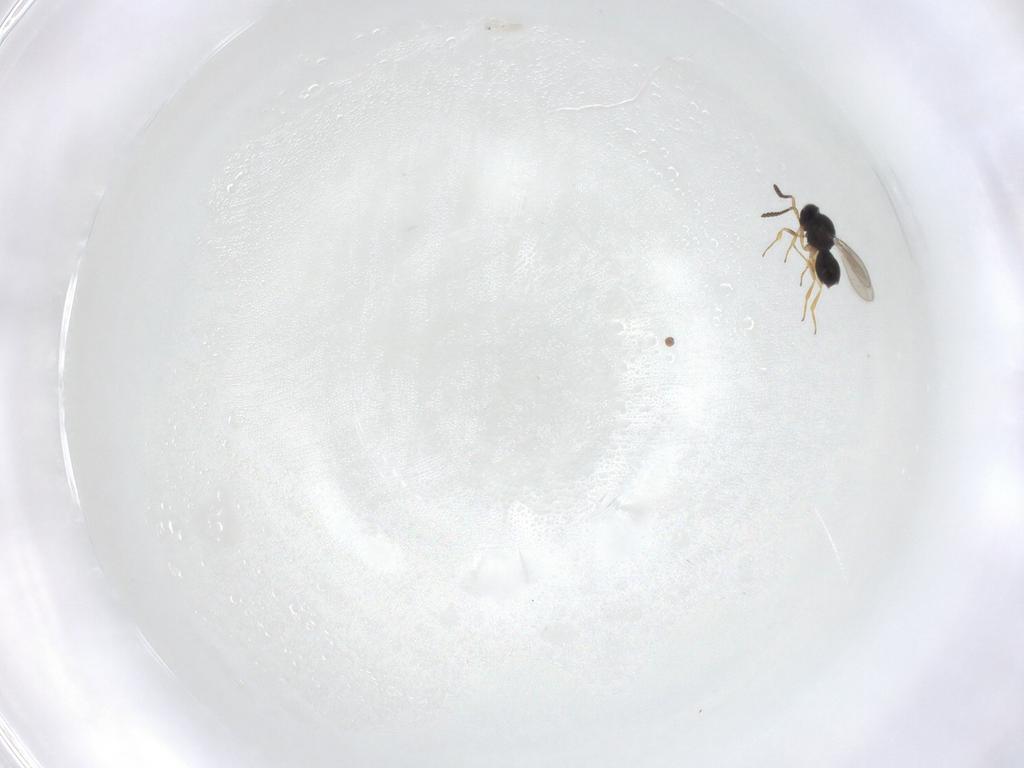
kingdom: Animalia
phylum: Arthropoda
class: Insecta
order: Hymenoptera
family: Scelionidae
